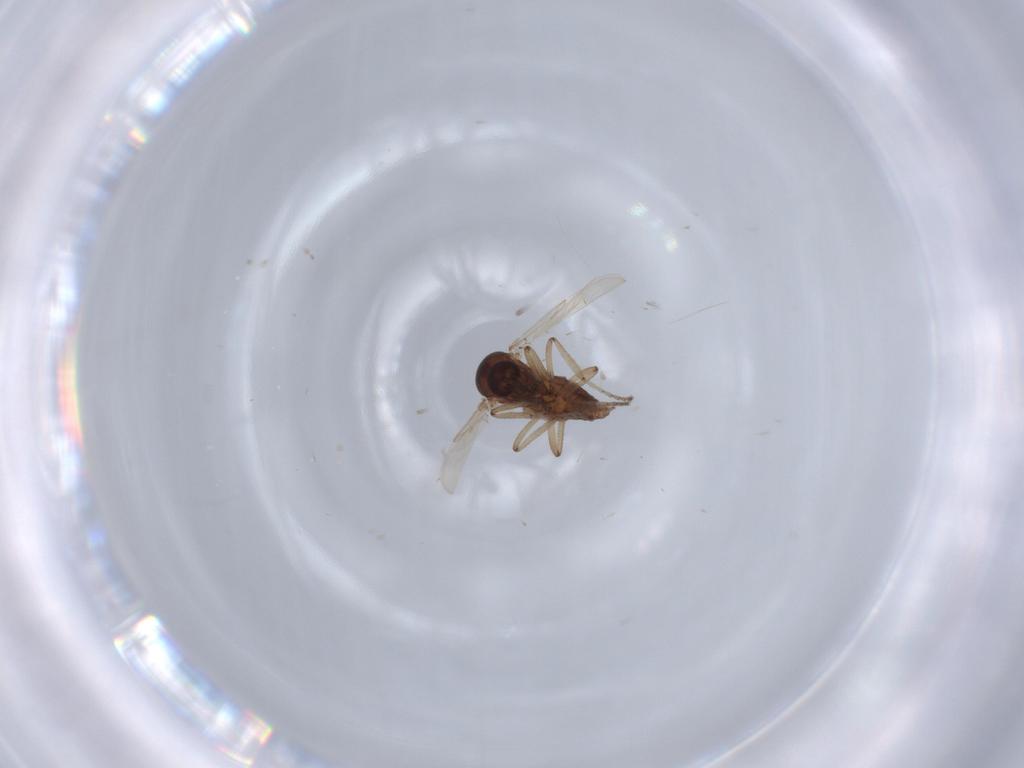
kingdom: Animalia
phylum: Arthropoda
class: Insecta
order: Diptera
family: Ceratopogonidae
